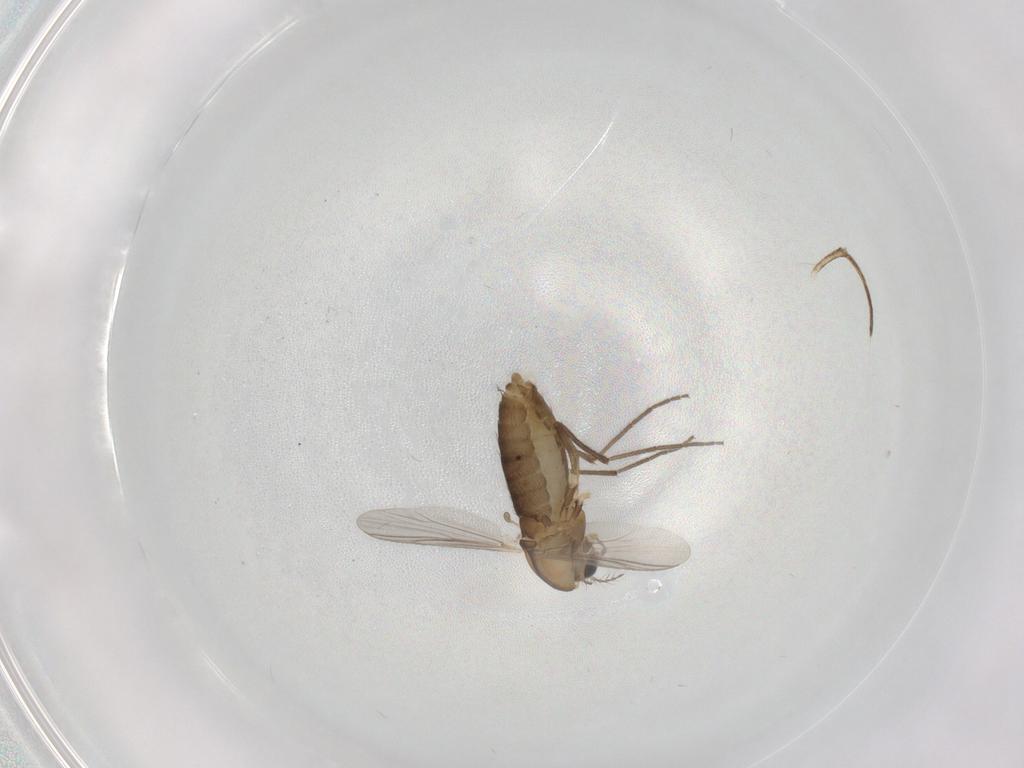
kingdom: Animalia
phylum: Arthropoda
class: Insecta
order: Diptera
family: Chironomidae
